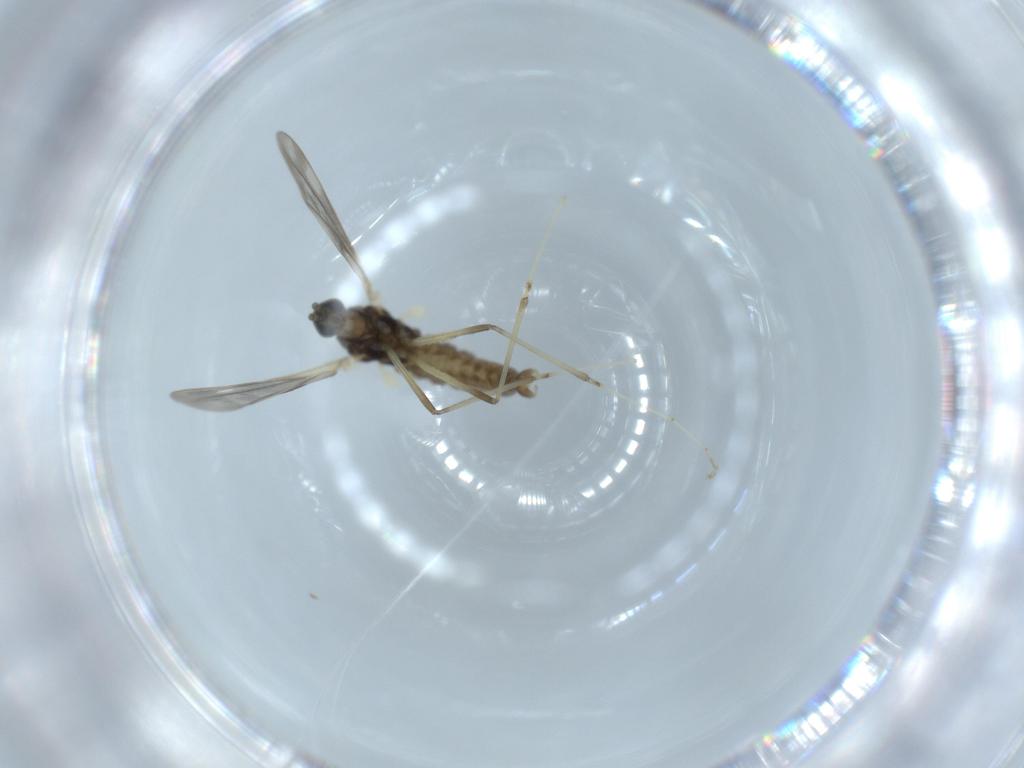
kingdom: Animalia
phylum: Arthropoda
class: Insecta
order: Diptera
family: Cecidomyiidae
